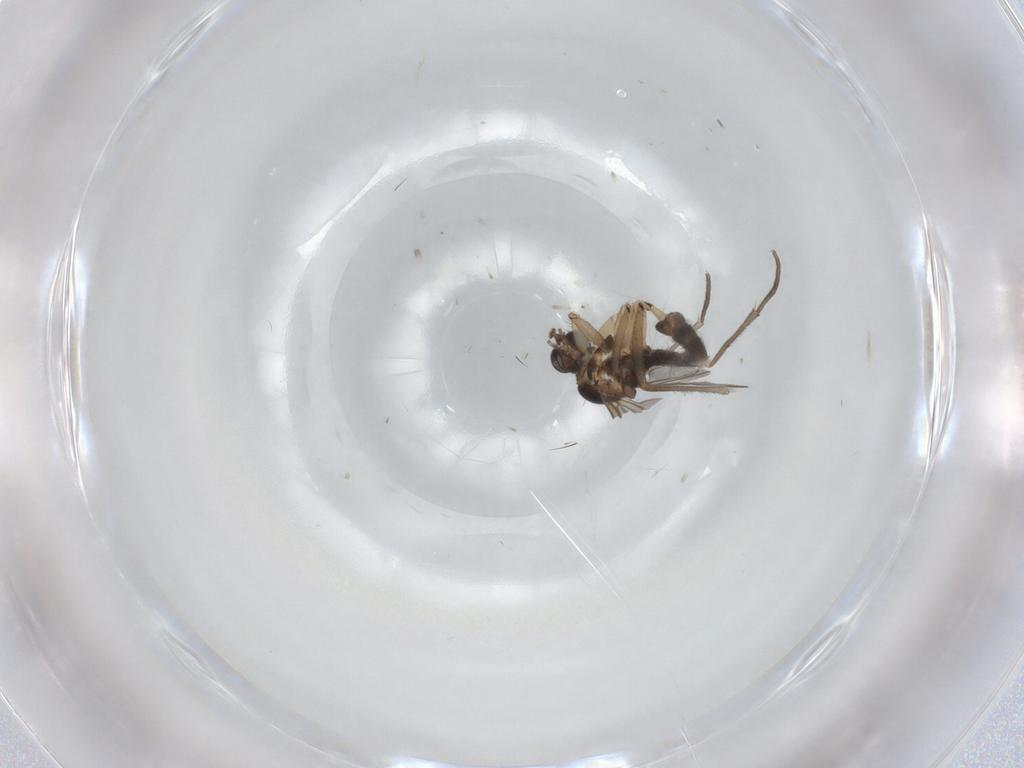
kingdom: Animalia
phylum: Arthropoda
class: Insecta
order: Diptera
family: Sciaridae
